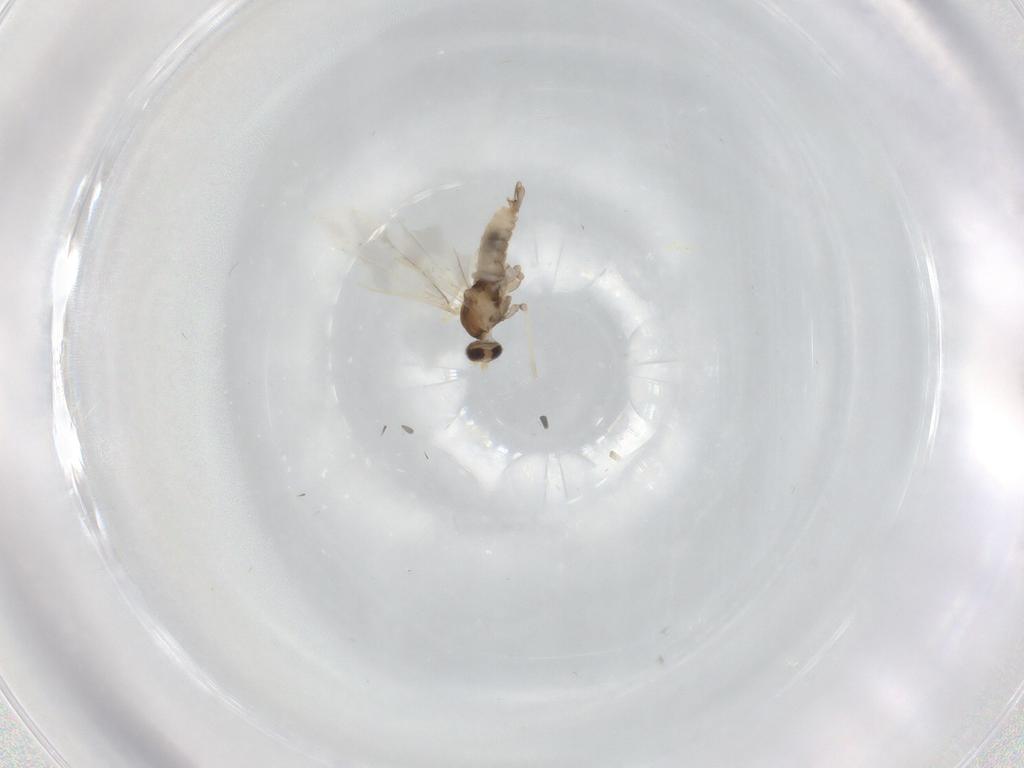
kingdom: Animalia
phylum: Arthropoda
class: Insecta
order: Diptera
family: Cecidomyiidae
